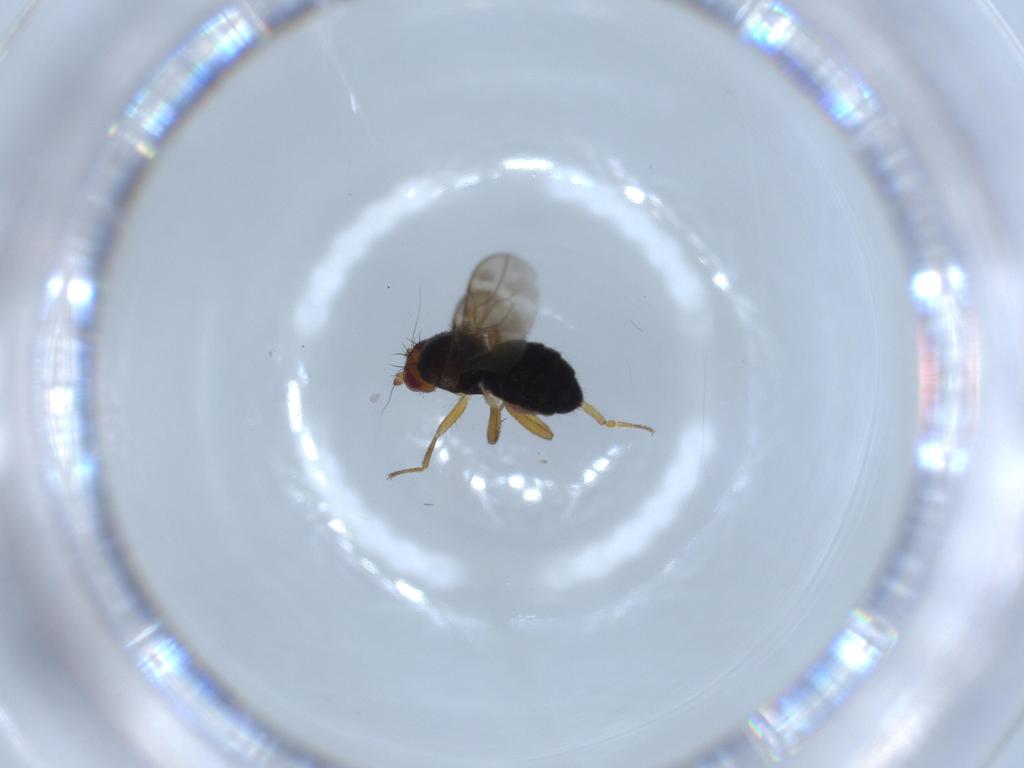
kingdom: Animalia
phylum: Arthropoda
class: Insecta
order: Diptera
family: Sphaeroceridae
